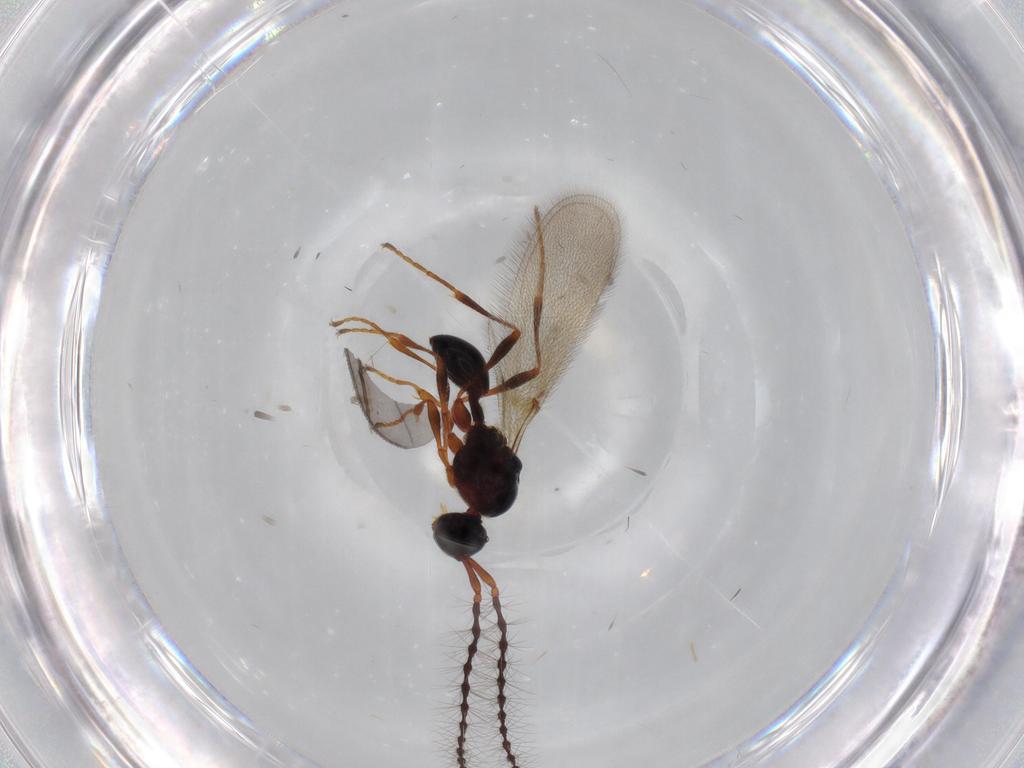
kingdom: Animalia
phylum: Arthropoda
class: Insecta
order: Hymenoptera
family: Diapriidae
